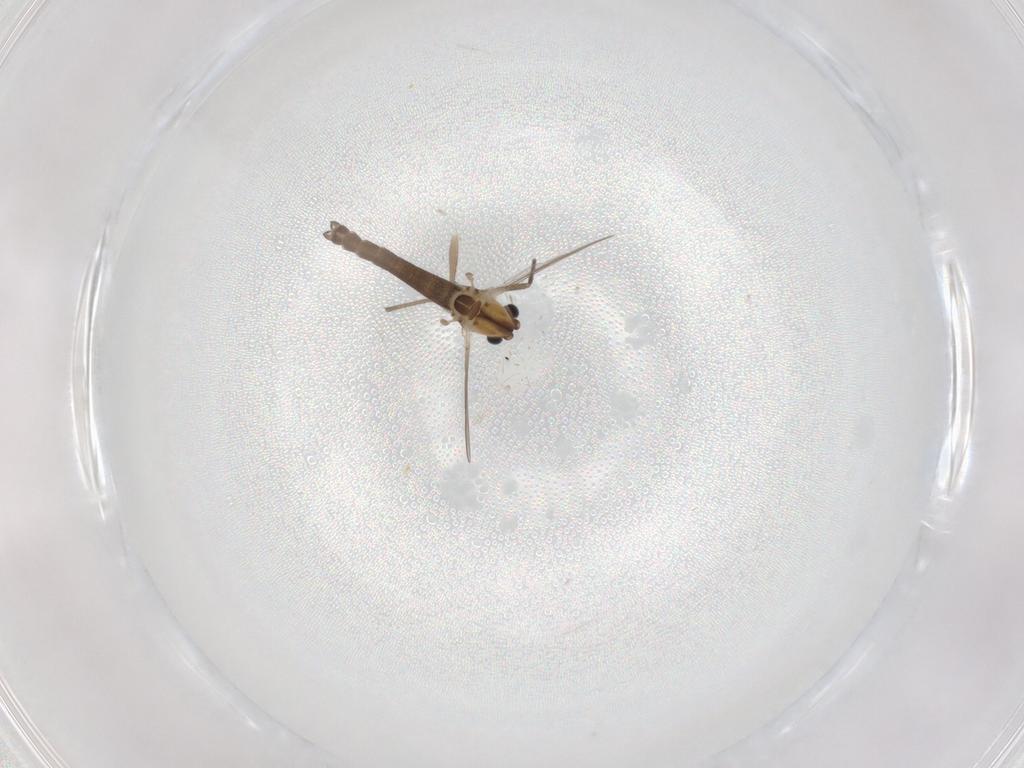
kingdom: Animalia
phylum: Arthropoda
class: Insecta
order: Diptera
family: Chironomidae
